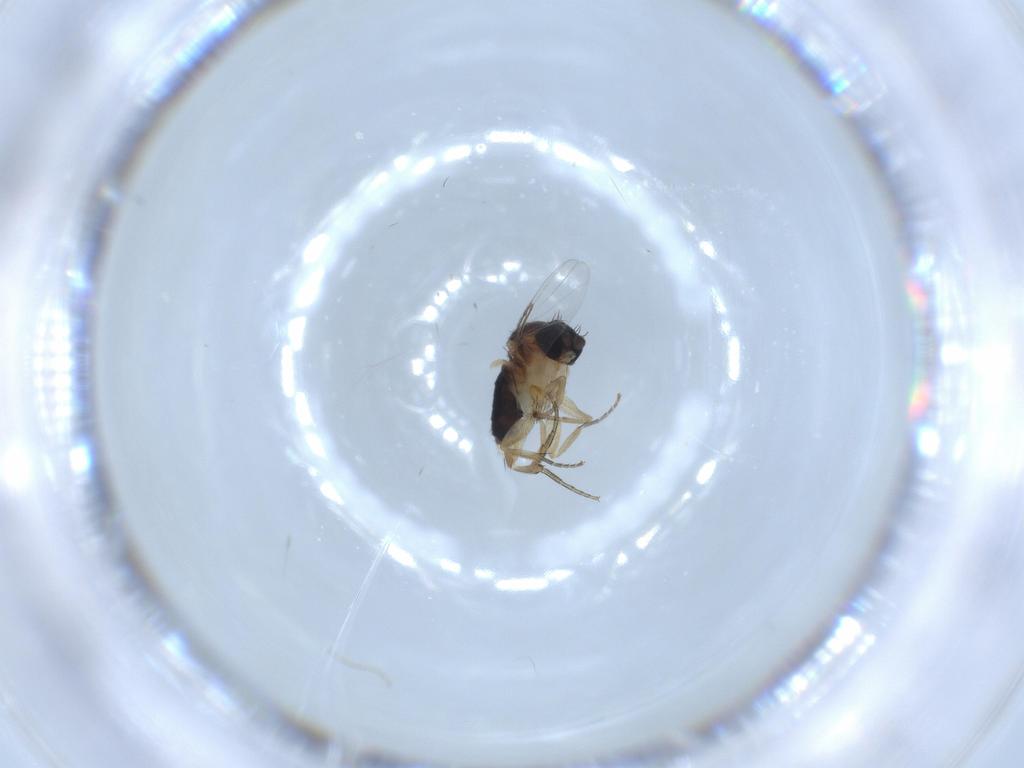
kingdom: Animalia
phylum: Arthropoda
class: Insecta
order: Diptera
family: Phoridae
